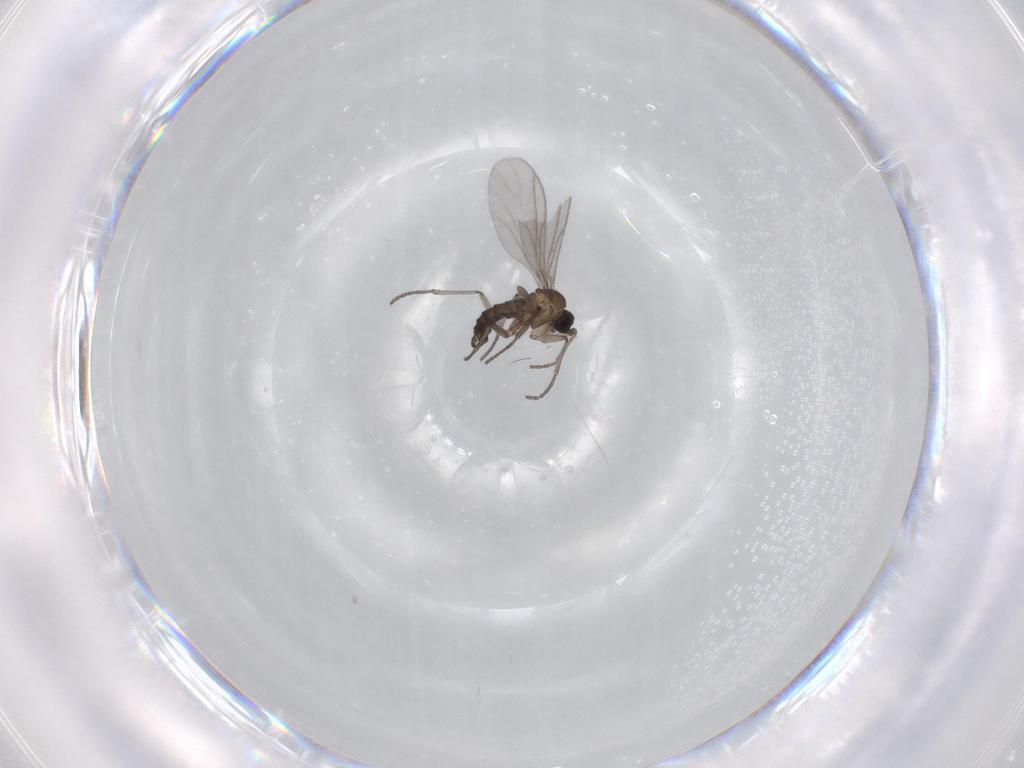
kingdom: Animalia
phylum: Arthropoda
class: Insecta
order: Diptera
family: Sciaridae
